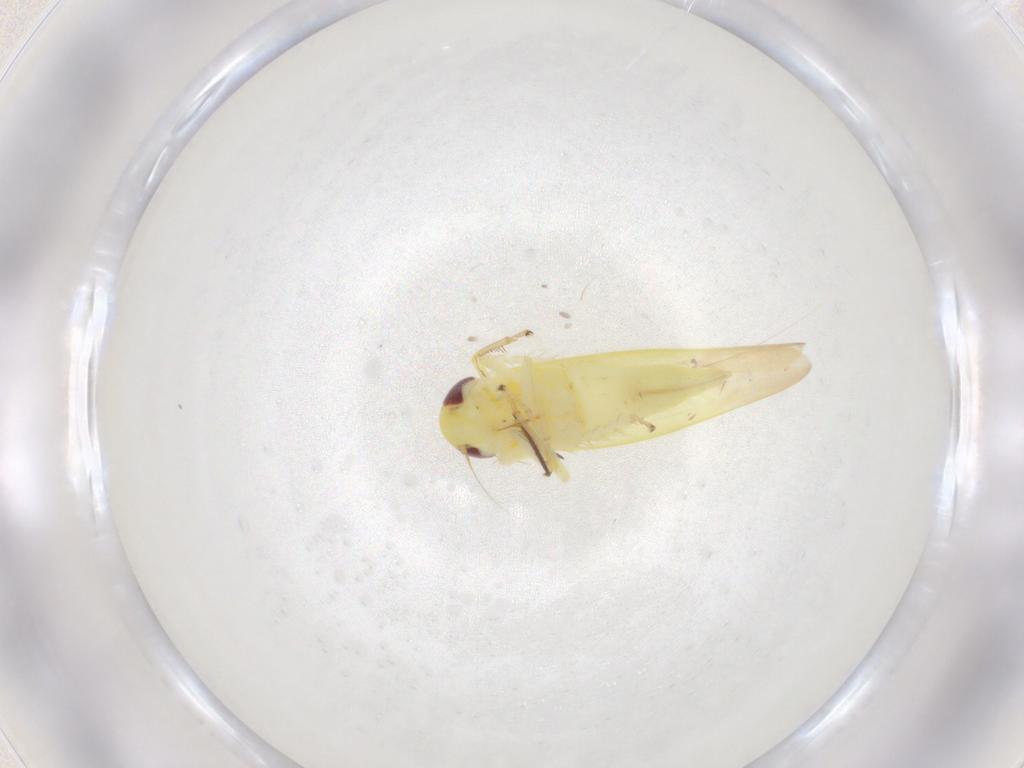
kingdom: Animalia
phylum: Arthropoda
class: Insecta
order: Hemiptera
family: Cicadellidae
